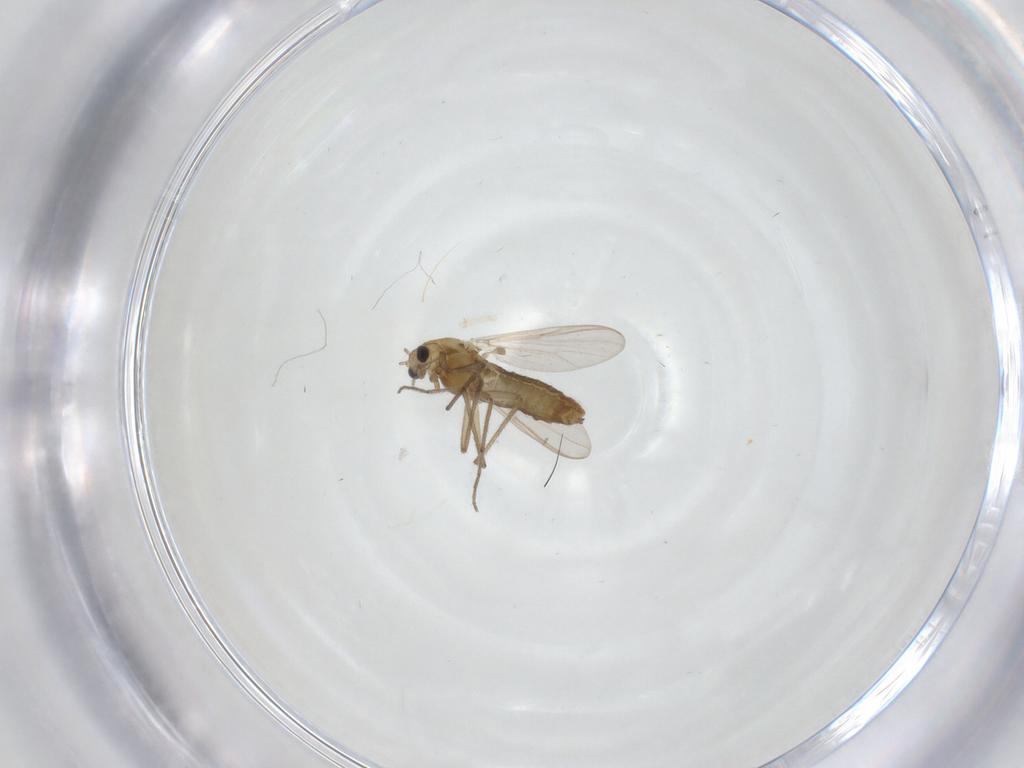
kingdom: Animalia
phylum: Arthropoda
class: Insecta
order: Diptera
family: Chironomidae
